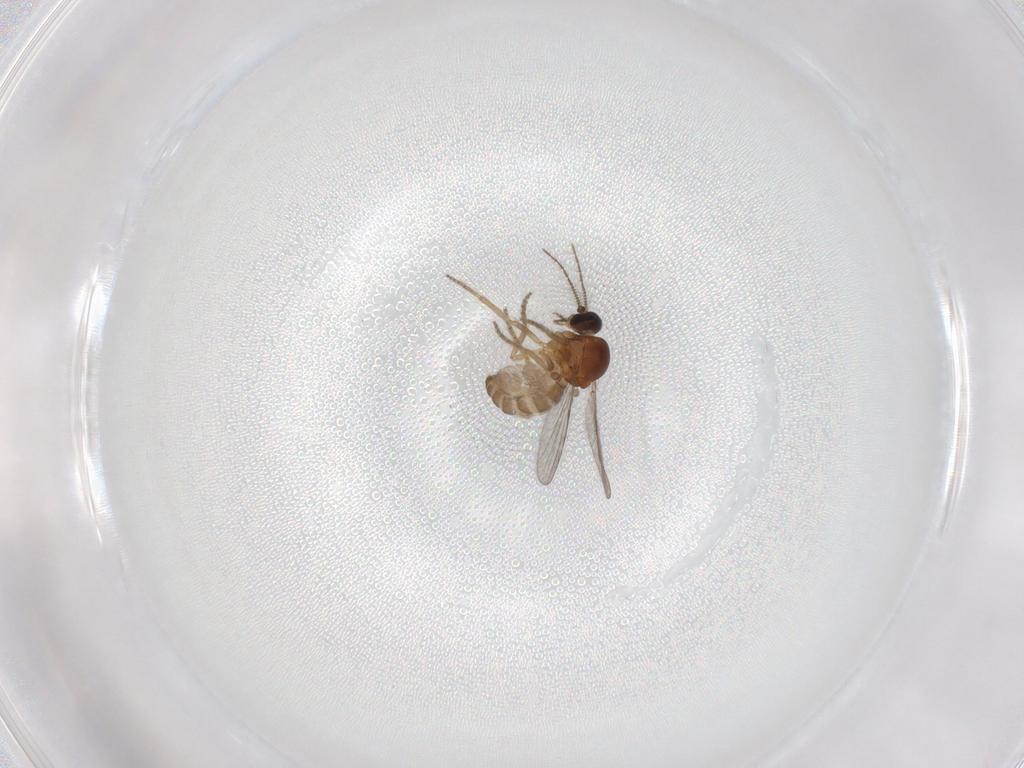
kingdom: Animalia
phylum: Arthropoda
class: Insecta
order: Diptera
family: Ceratopogonidae
